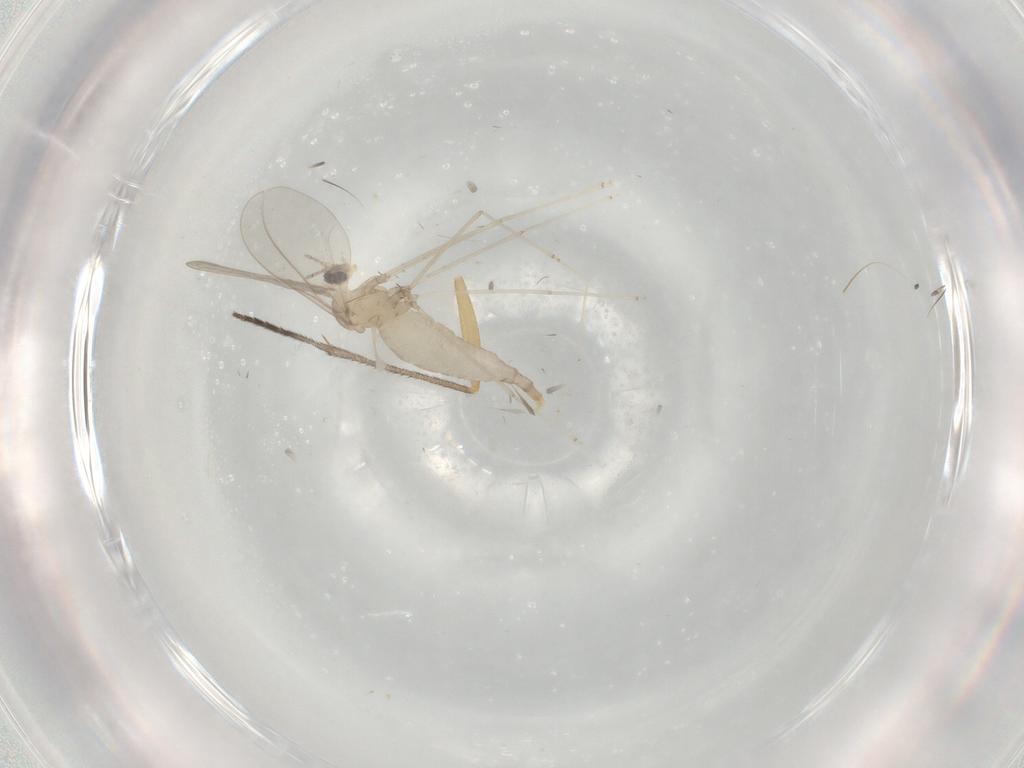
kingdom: Animalia
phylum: Arthropoda
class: Insecta
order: Diptera
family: Cecidomyiidae
